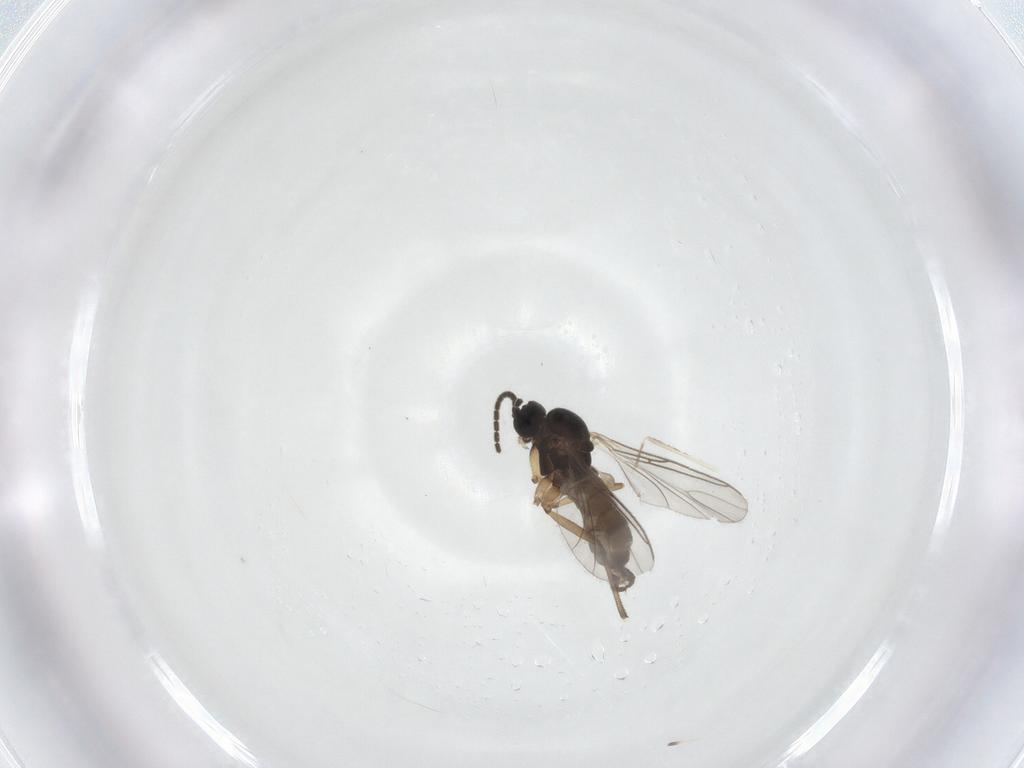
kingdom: Animalia
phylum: Arthropoda
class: Insecta
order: Diptera
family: Sciaridae
